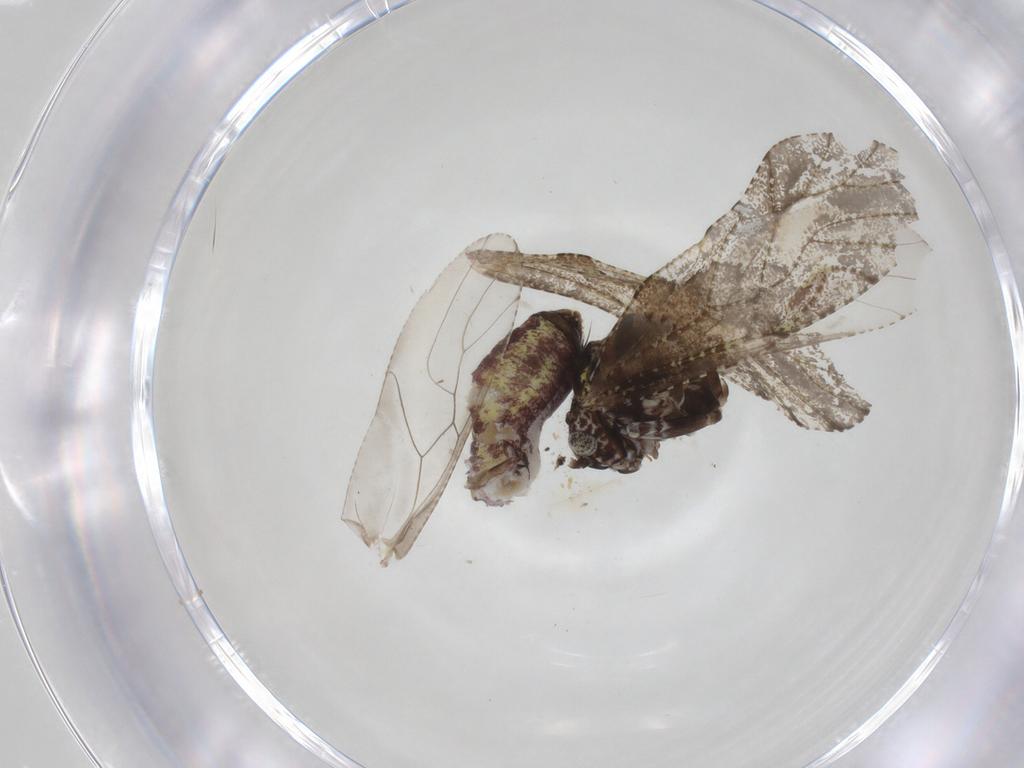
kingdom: Animalia
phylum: Arthropoda
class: Insecta
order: Psocodea
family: Myopsocidae
